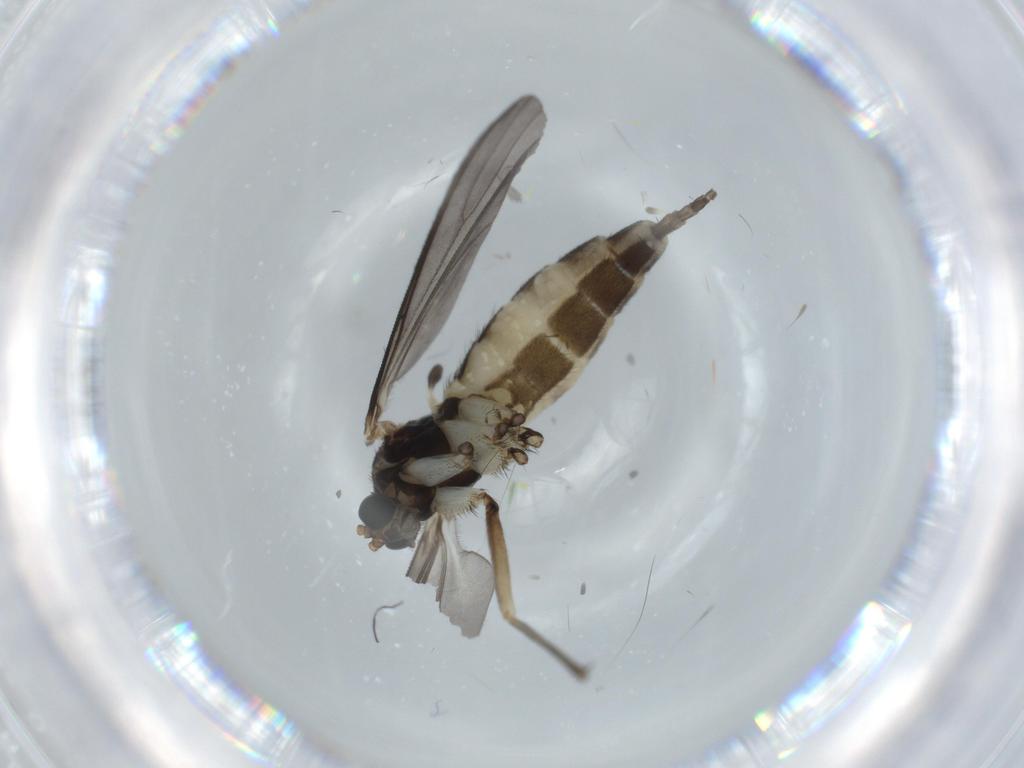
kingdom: Animalia
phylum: Arthropoda
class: Insecta
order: Diptera
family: Sciaridae
